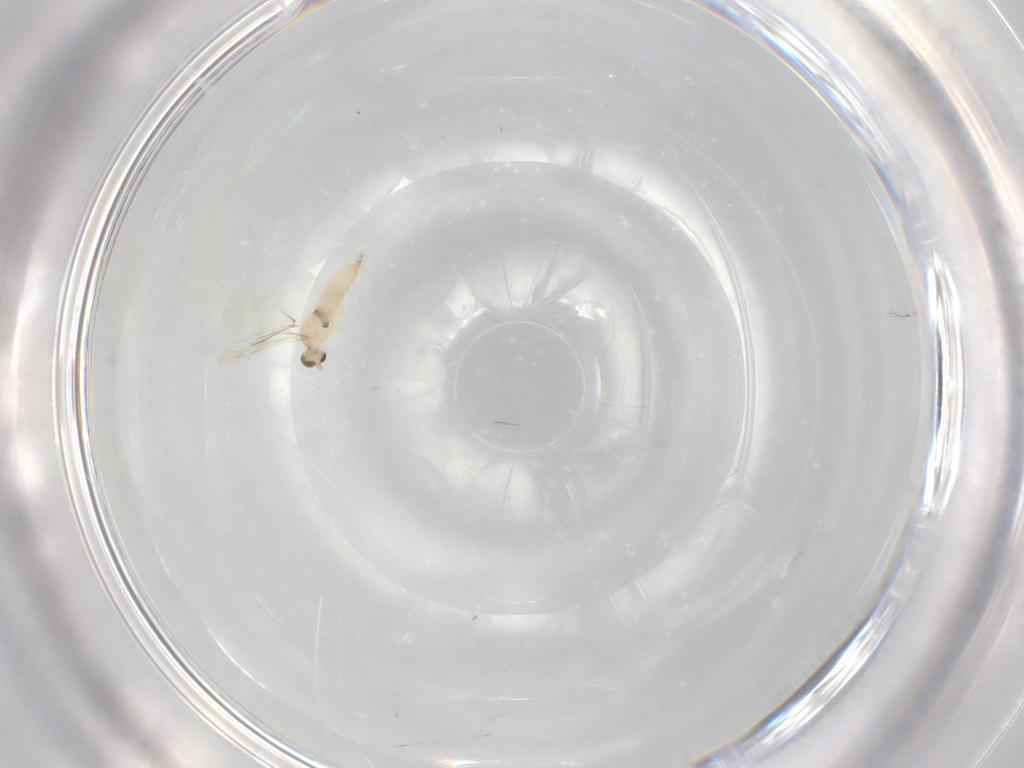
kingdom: Animalia
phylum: Arthropoda
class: Insecta
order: Diptera
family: Cecidomyiidae
